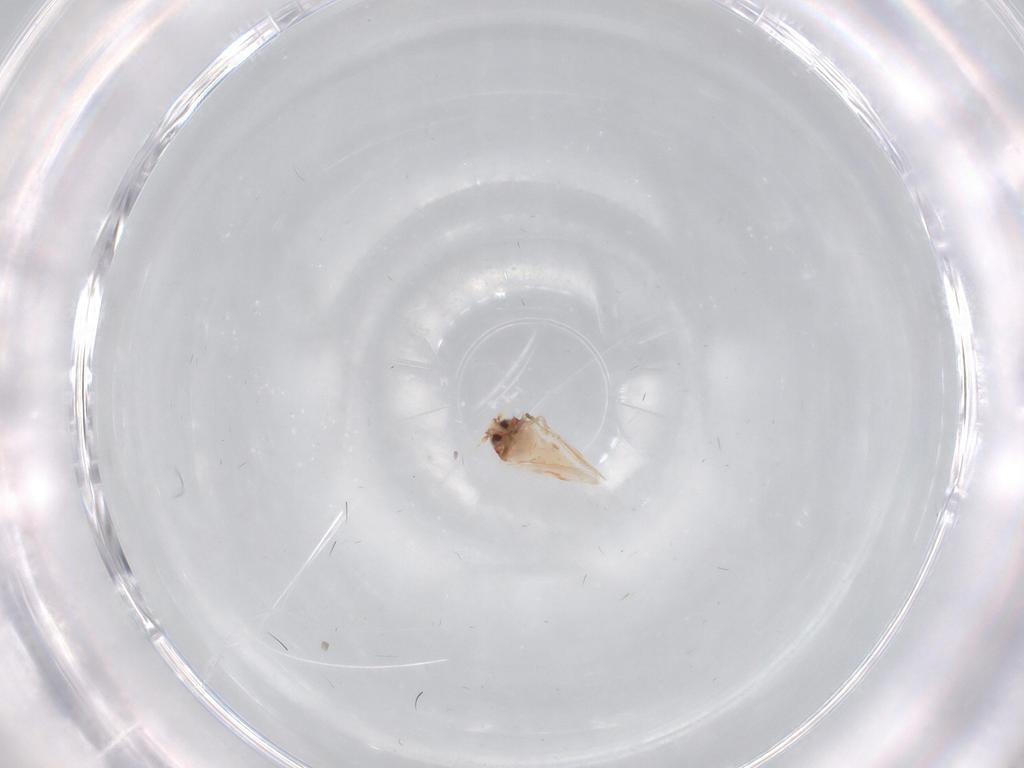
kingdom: Animalia
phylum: Arthropoda
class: Insecta
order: Hemiptera
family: Aleyrodidae
